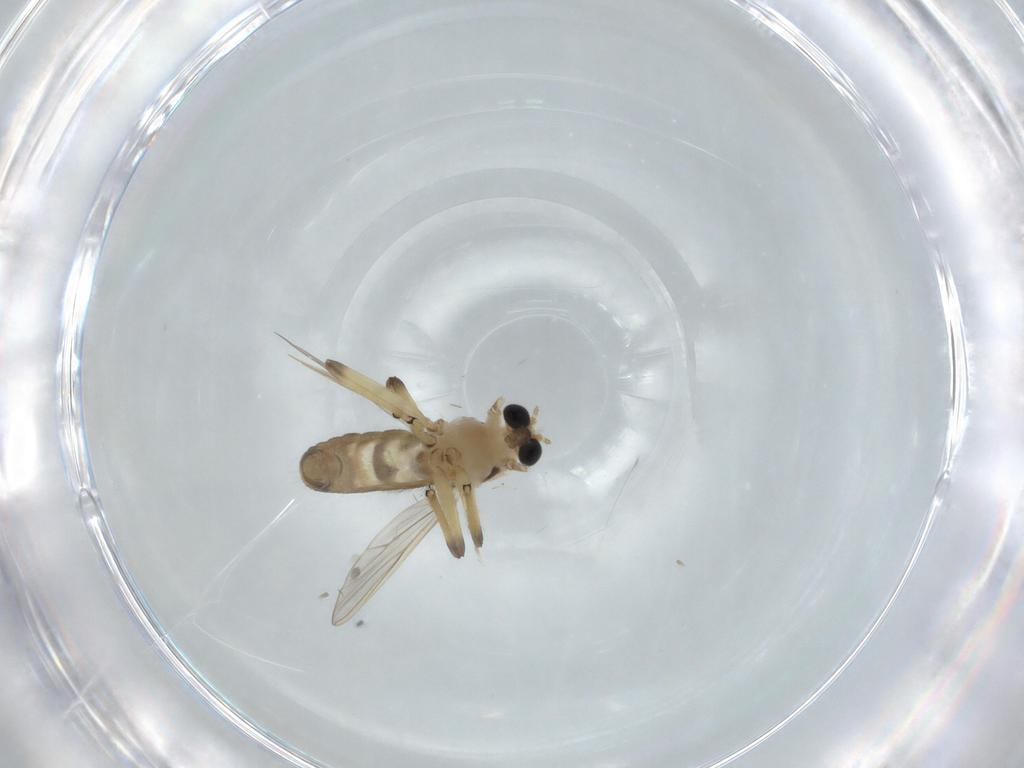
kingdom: Animalia
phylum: Arthropoda
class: Insecta
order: Diptera
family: Chironomidae
